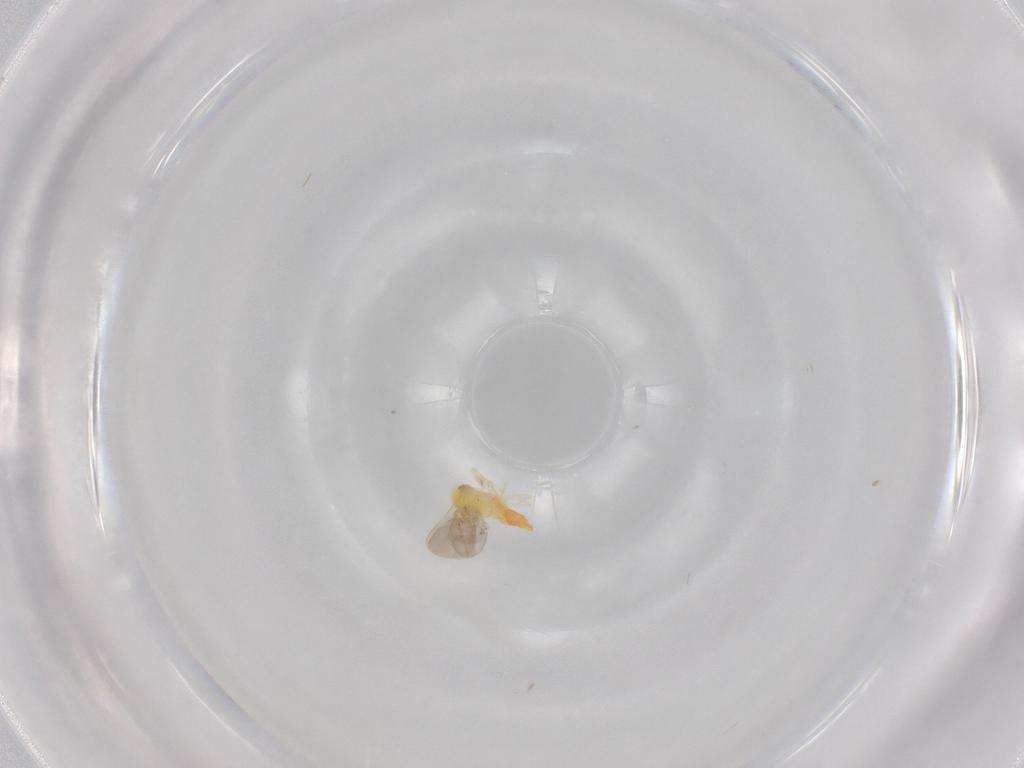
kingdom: Animalia
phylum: Arthropoda
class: Insecta
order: Hemiptera
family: Aleyrodidae
